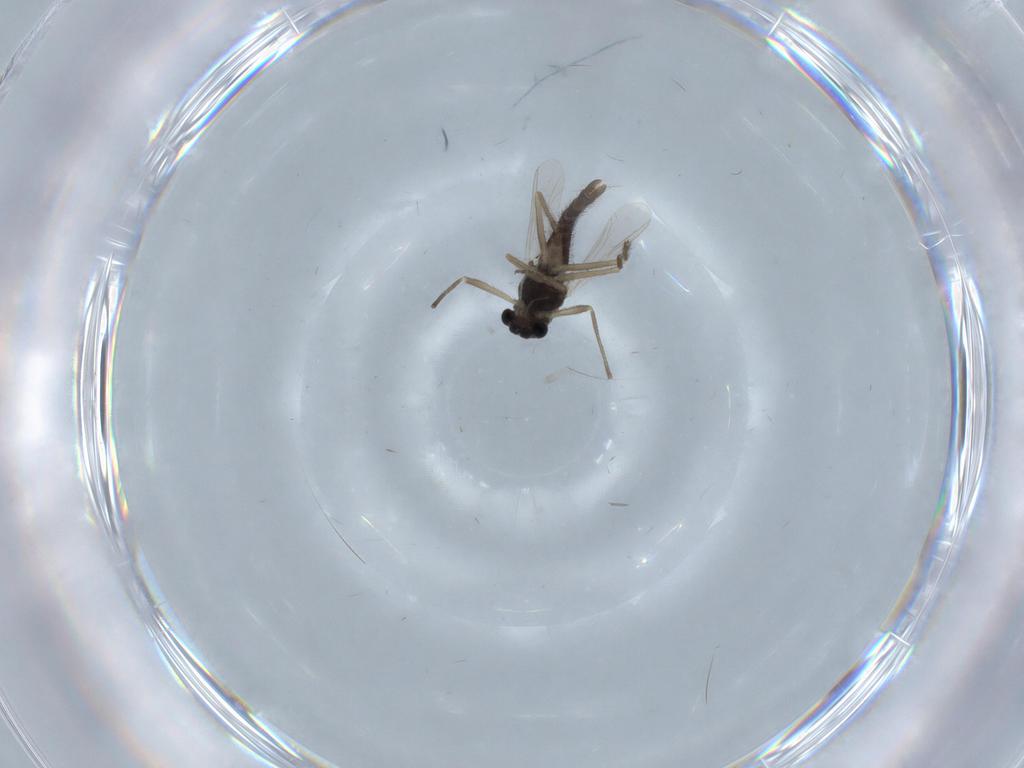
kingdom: Animalia
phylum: Arthropoda
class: Insecta
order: Diptera
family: Chironomidae
